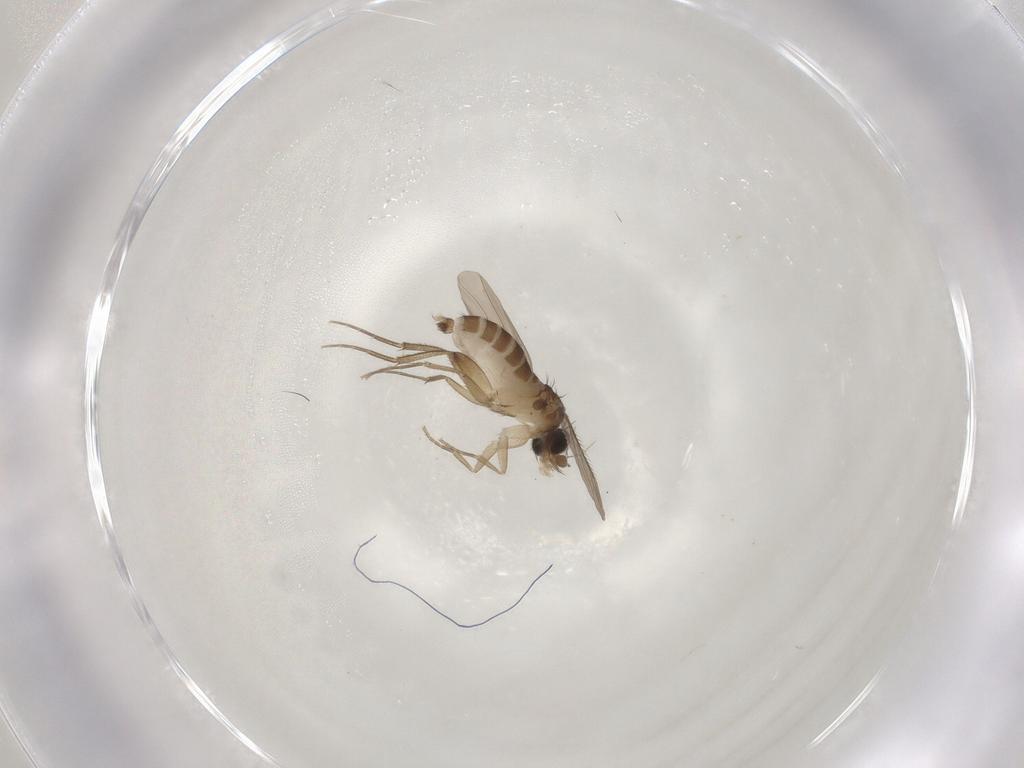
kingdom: Animalia
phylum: Arthropoda
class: Insecta
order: Diptera
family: Phoridae
